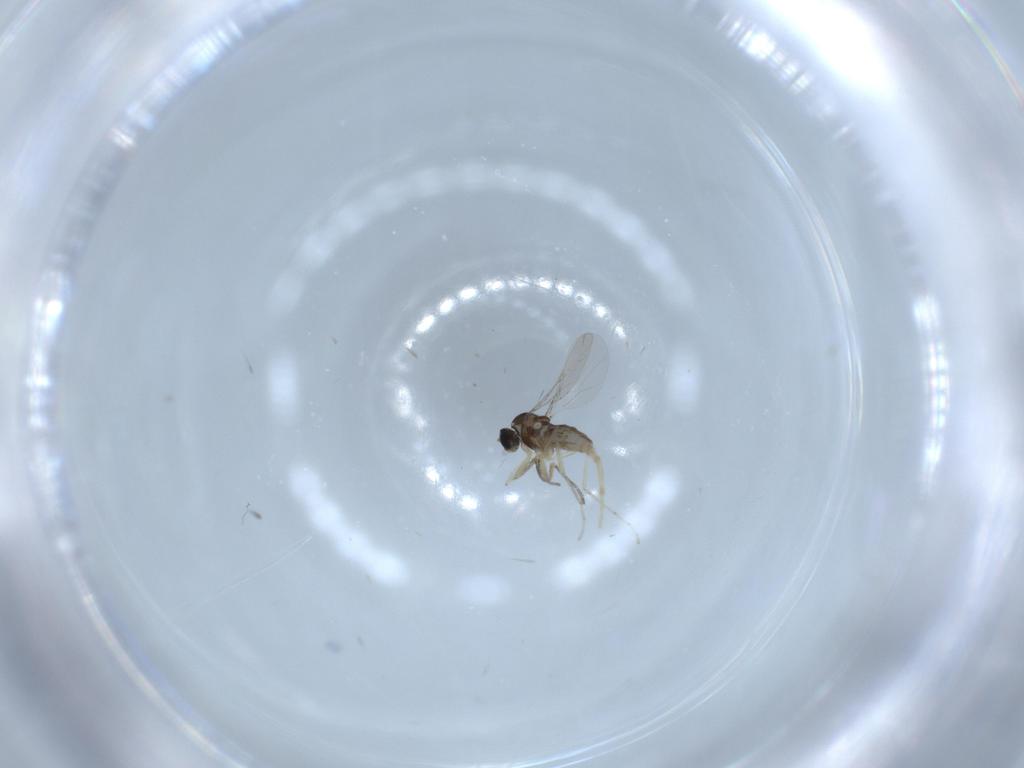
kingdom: Animalia
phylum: Arthropoda
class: Insecta
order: Diptera
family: Cecidomyiidae
